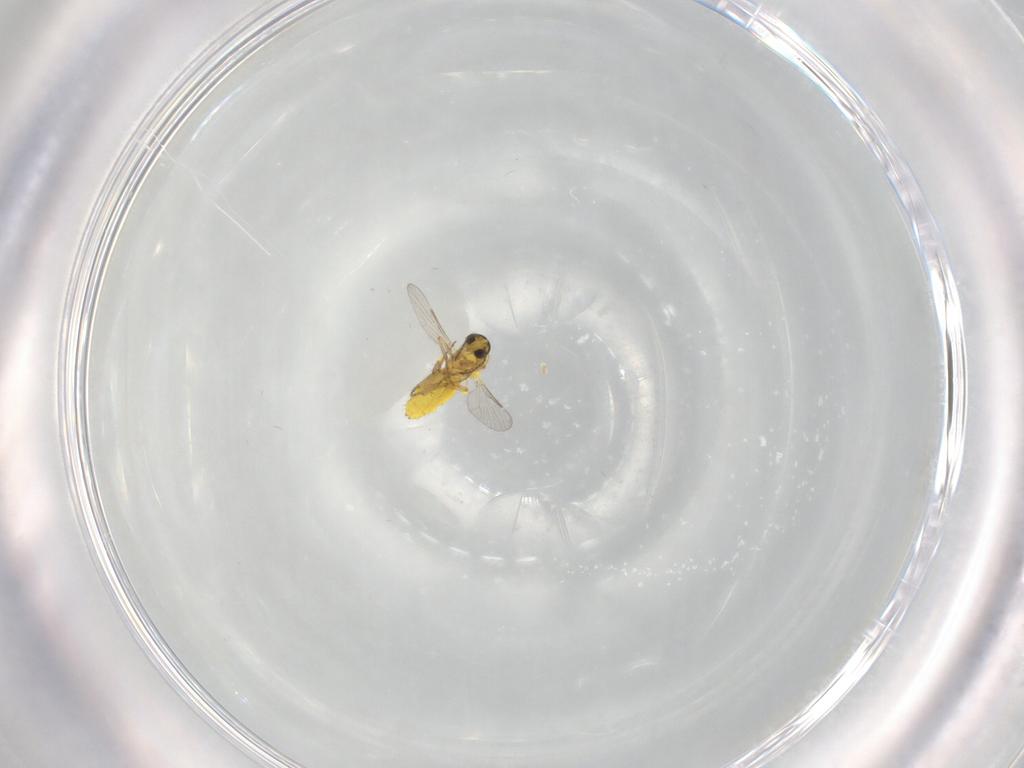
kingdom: Animalia
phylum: Arthropoda
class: Insecta
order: Diptera
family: Ceratopogonidae
